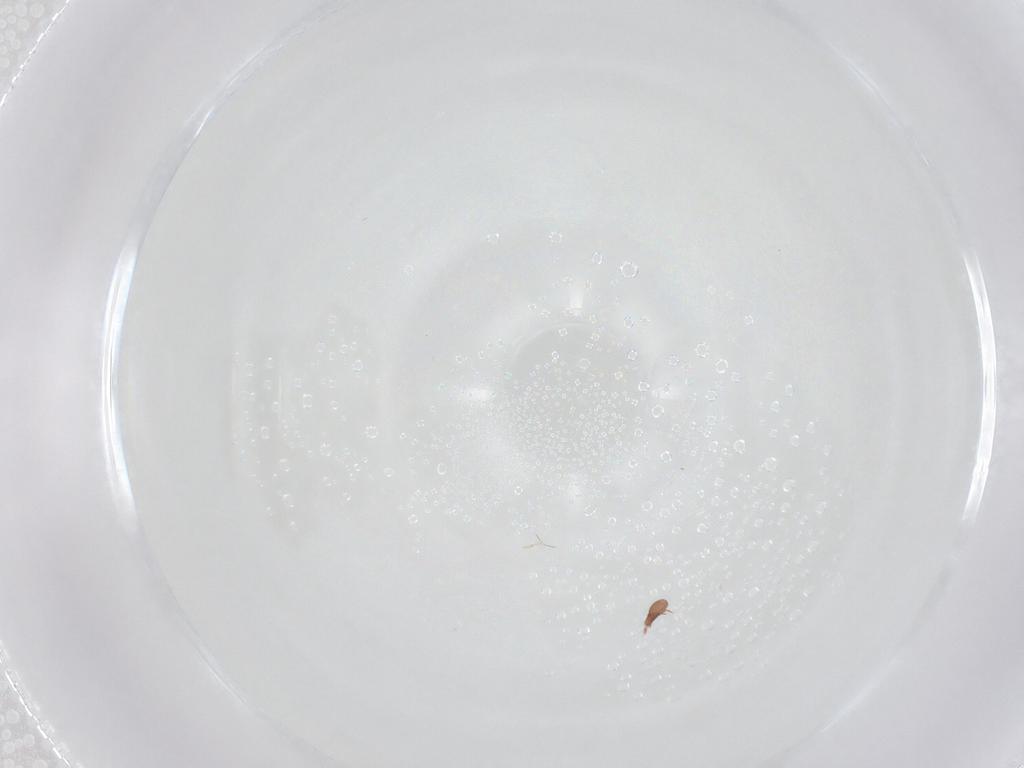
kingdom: Animalia
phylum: Arthropoda
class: Arachnida
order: Sarcoptiformes
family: Oppiidae
